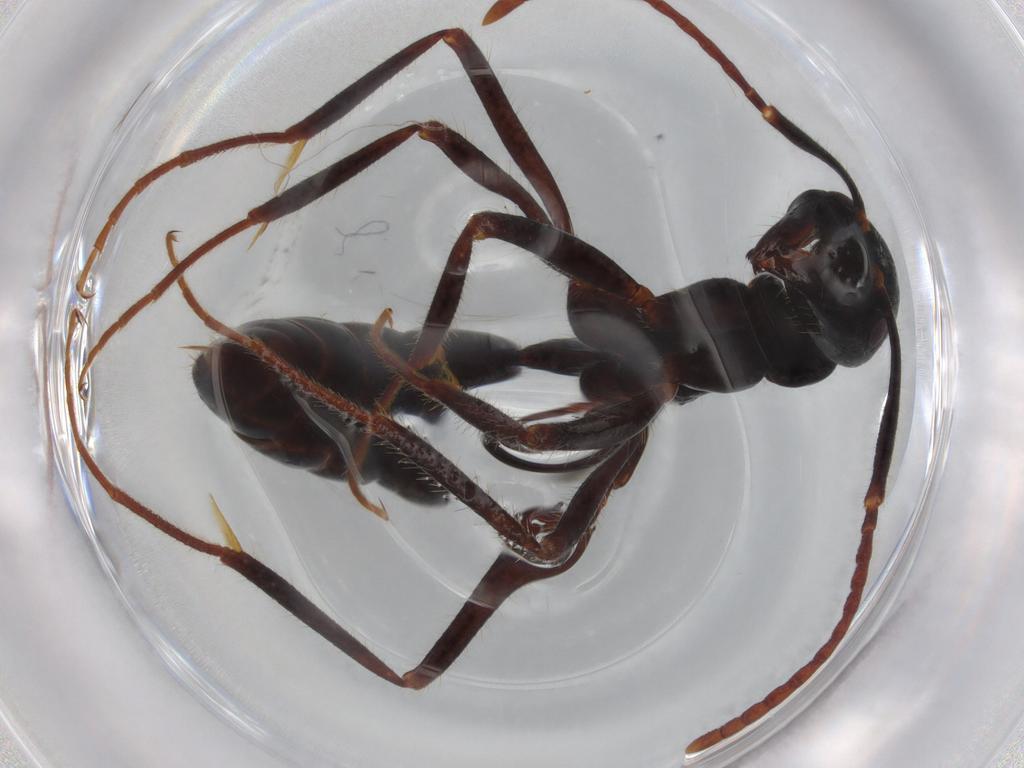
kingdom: Animalia
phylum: Arthropoda
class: Insecta
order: Hymenoptera
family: Formicidae
